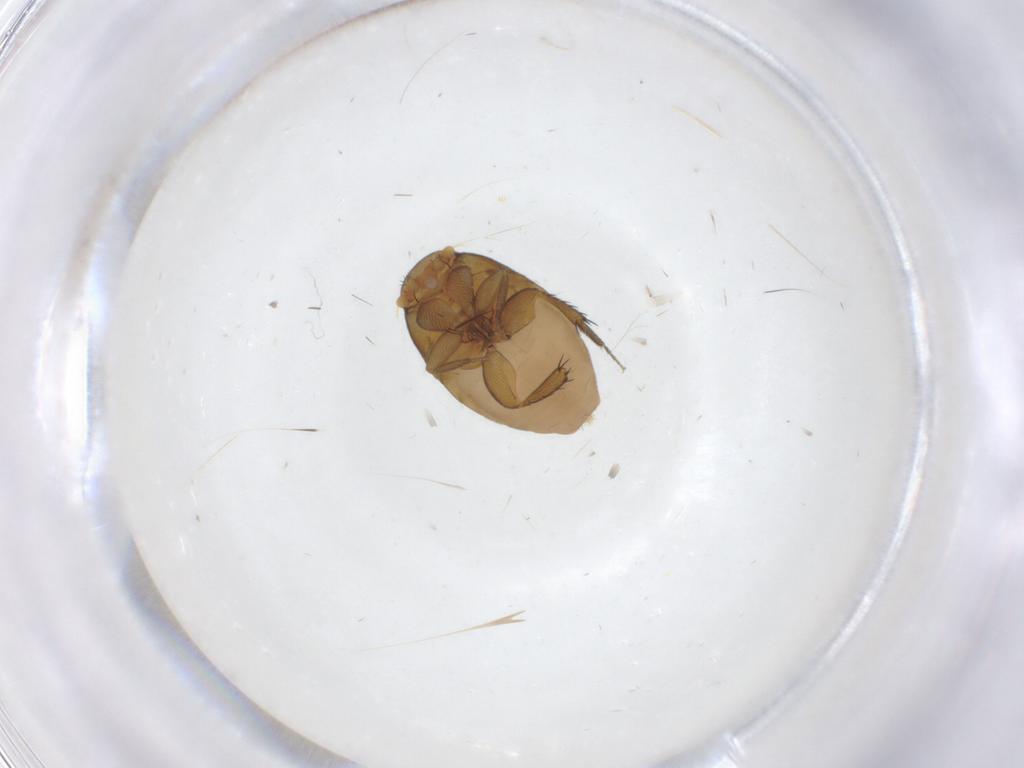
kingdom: Animalia
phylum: Arthropoda
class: Insecta
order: Diptera
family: Phoridae
